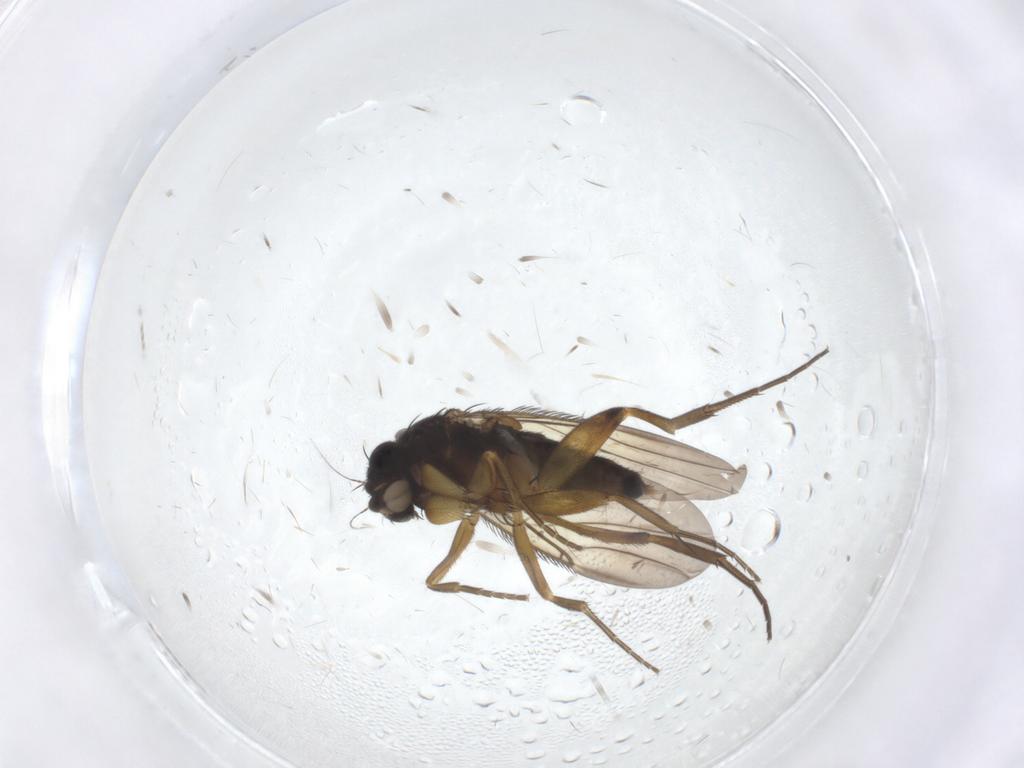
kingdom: Animalia
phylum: Arthropoda
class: Insecta
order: Diptera
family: Phoridae
